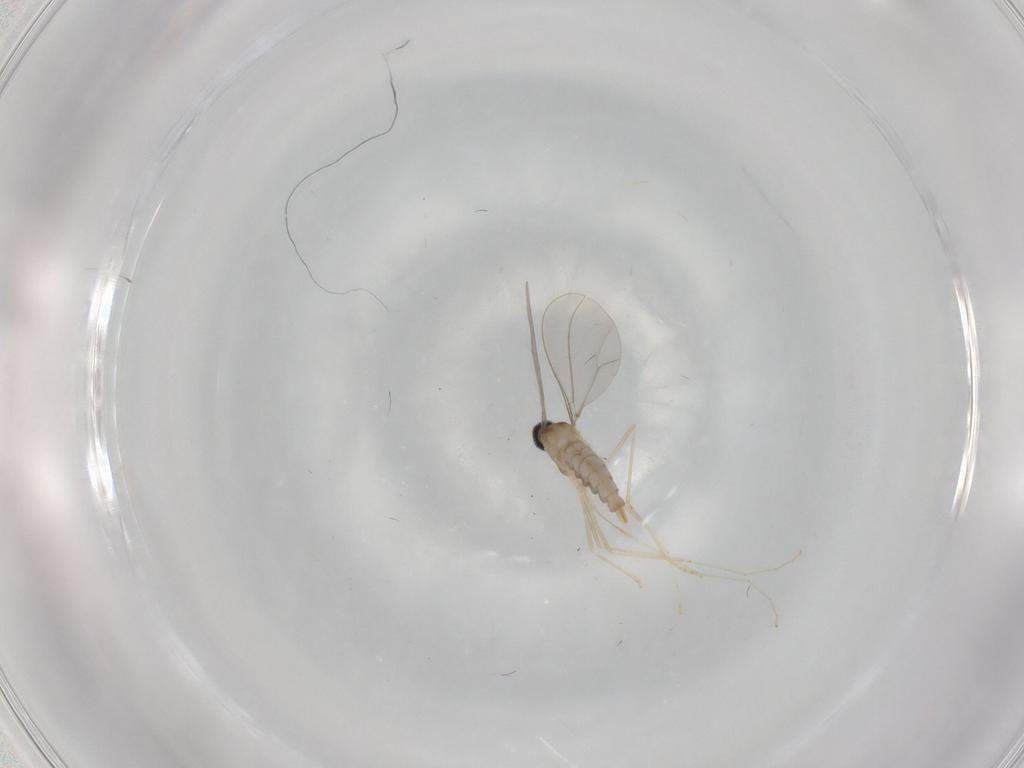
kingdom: Animalia
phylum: Arthropoda
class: Insecta
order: Diptera
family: Cecidomyiidae
